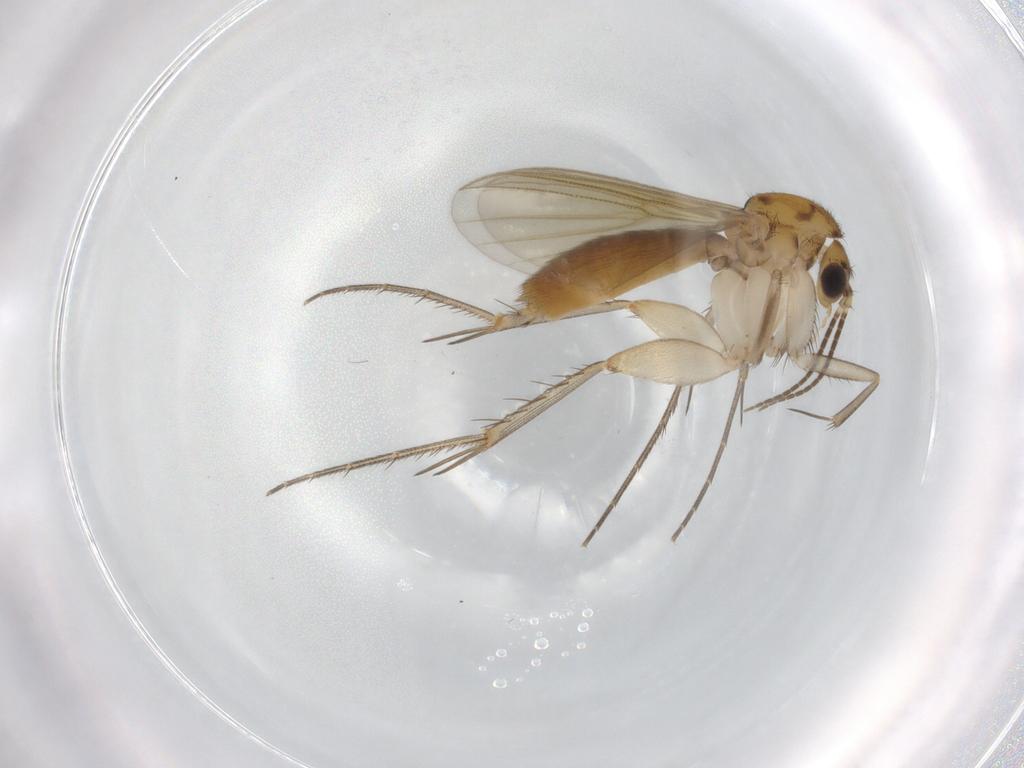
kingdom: Animalia
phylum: Arthropoda
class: Insecta
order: Diptera
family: Mycetophilidae
